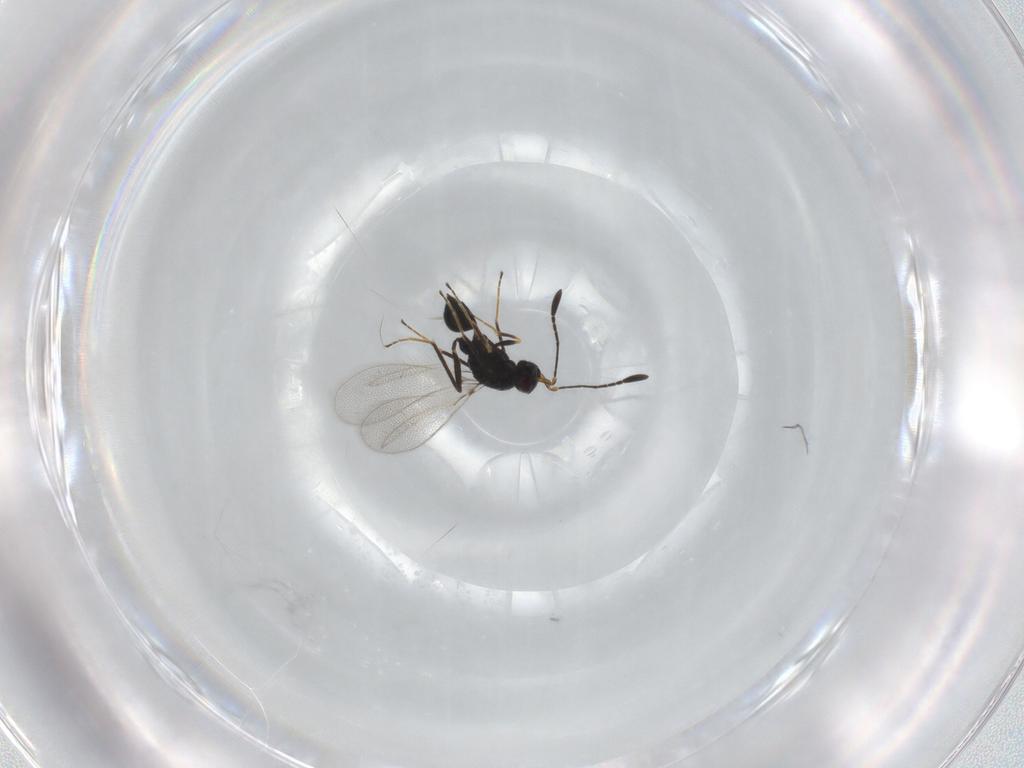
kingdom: Animalia
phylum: Arthropoda
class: Insecta
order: Hymenoptera
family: Mymaridae
